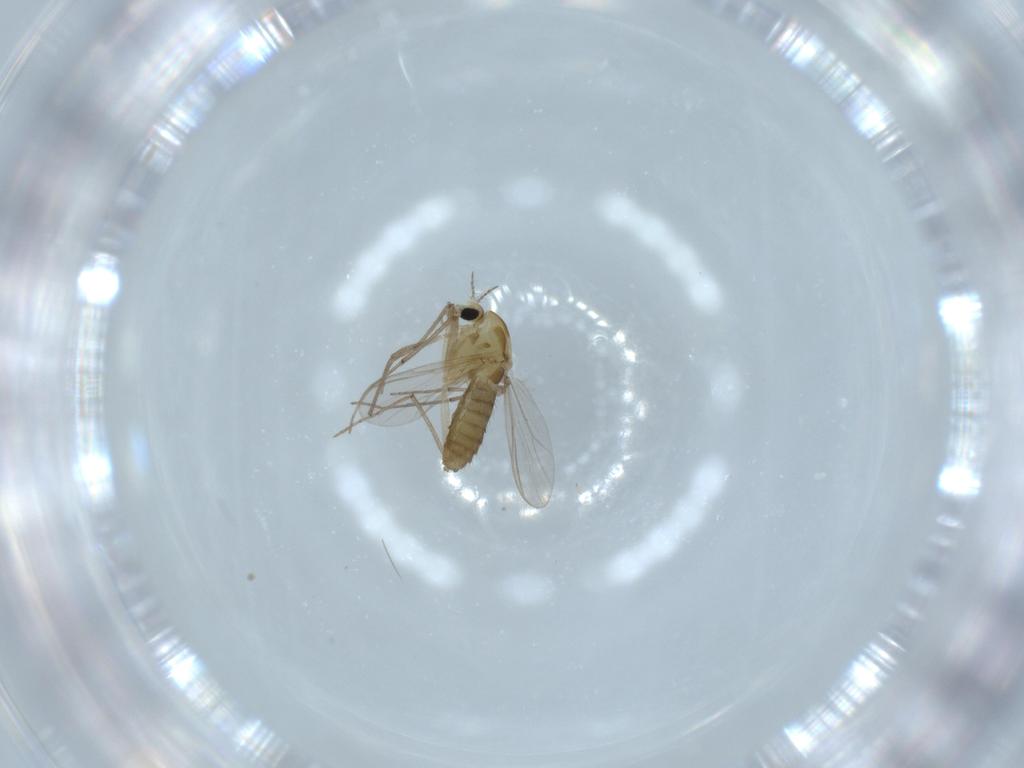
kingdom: Animalia
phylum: Arthropoda
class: Insecta
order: Diptera
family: Chironomidae
